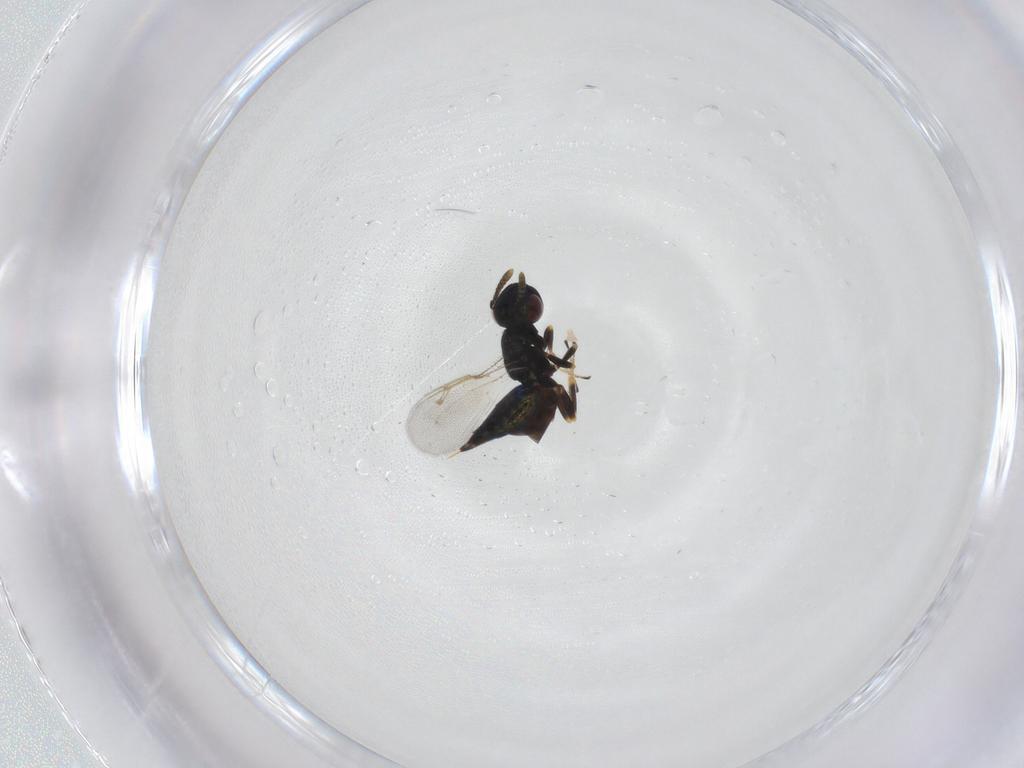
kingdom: Animalia
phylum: Arthropoda
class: Insecta
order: Hymenoptera
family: Pteromalidae
